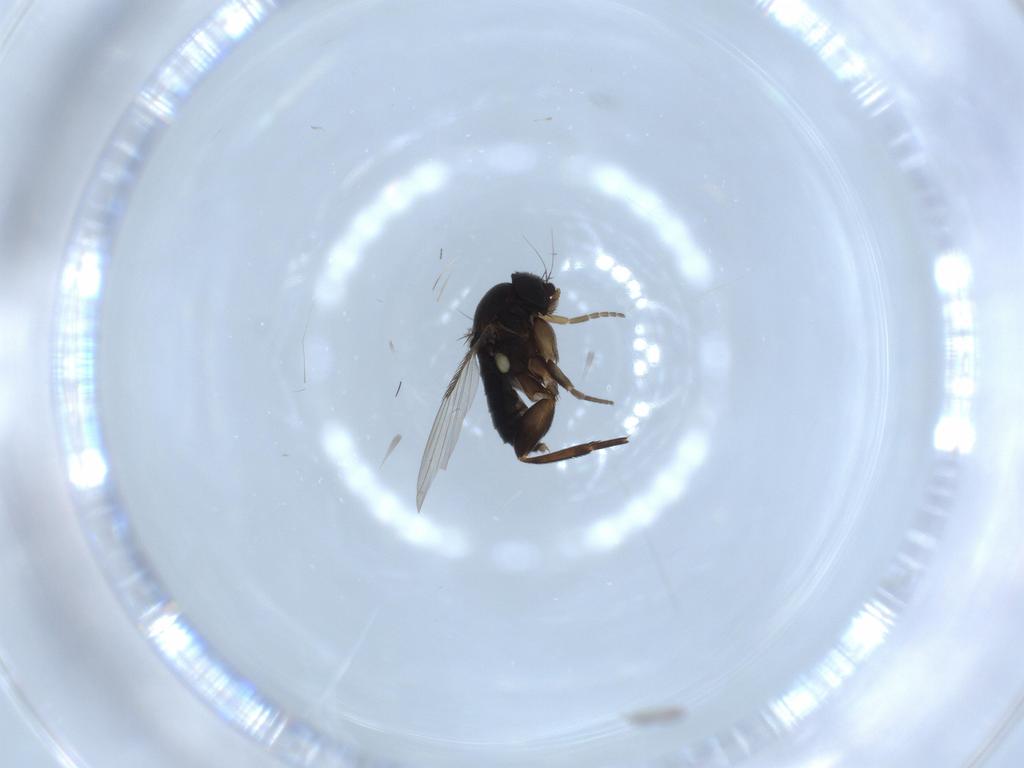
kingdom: Animalia
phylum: Arthropoda
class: Insecta
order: Diptera
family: Phoridae
